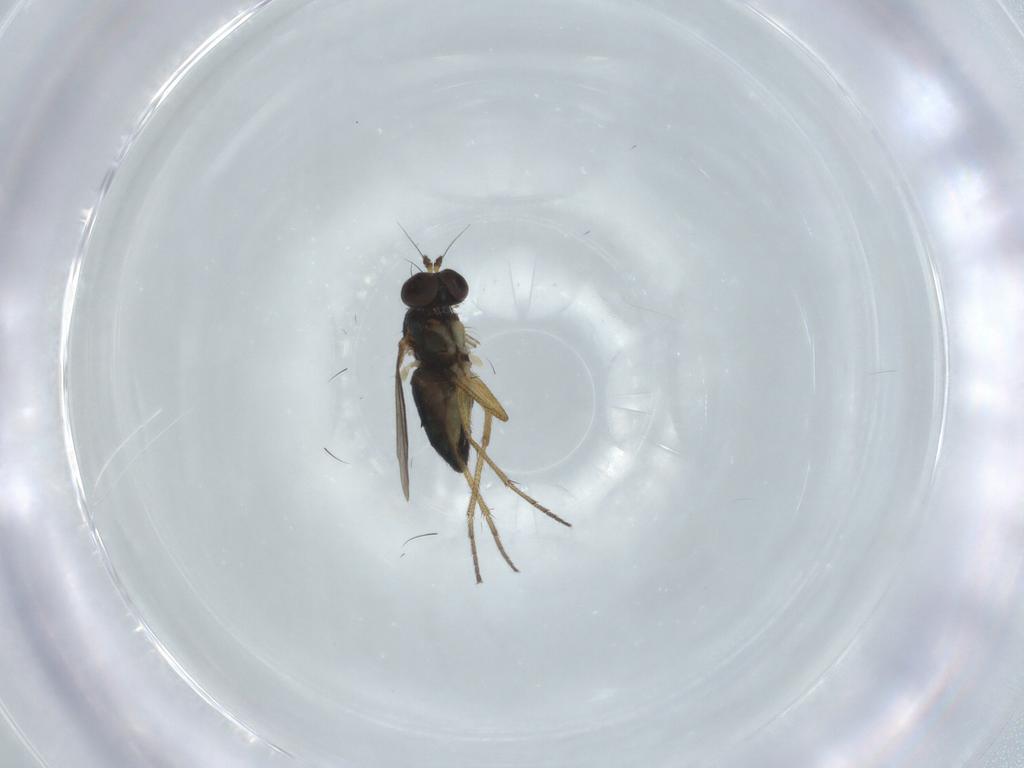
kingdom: Animalia
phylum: Arthropoda
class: Insecta
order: Diptera
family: Dolichopodidae
